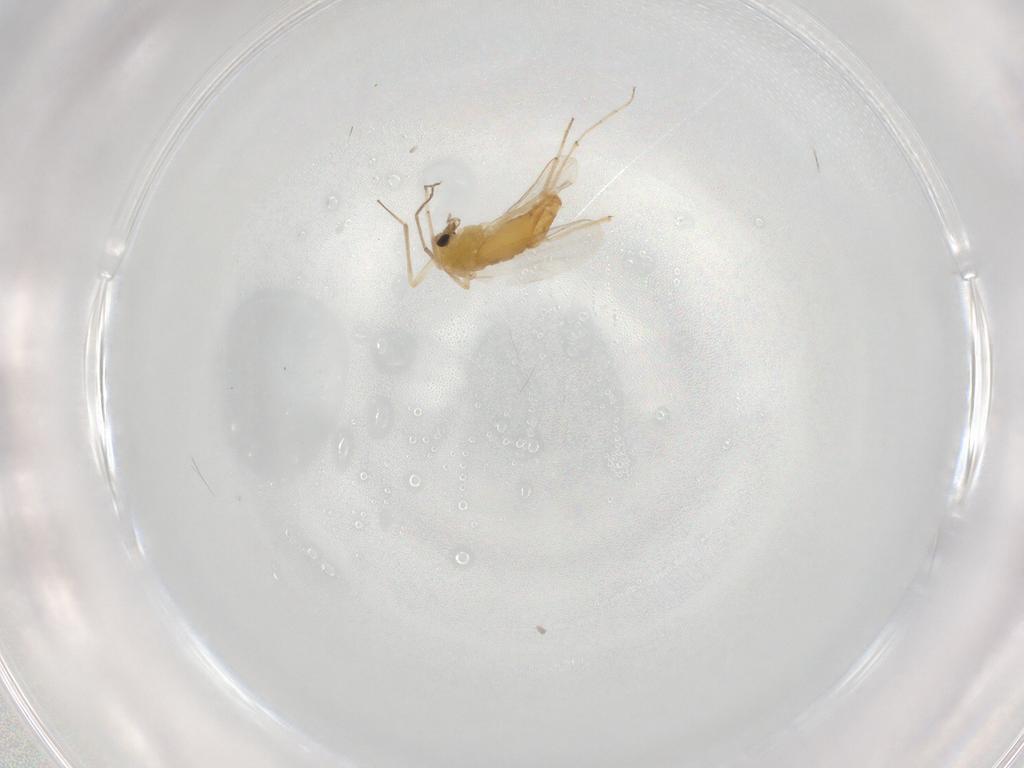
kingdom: Animalia
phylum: Arthropoda
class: Insecta
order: Diptera
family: Chironomidae
